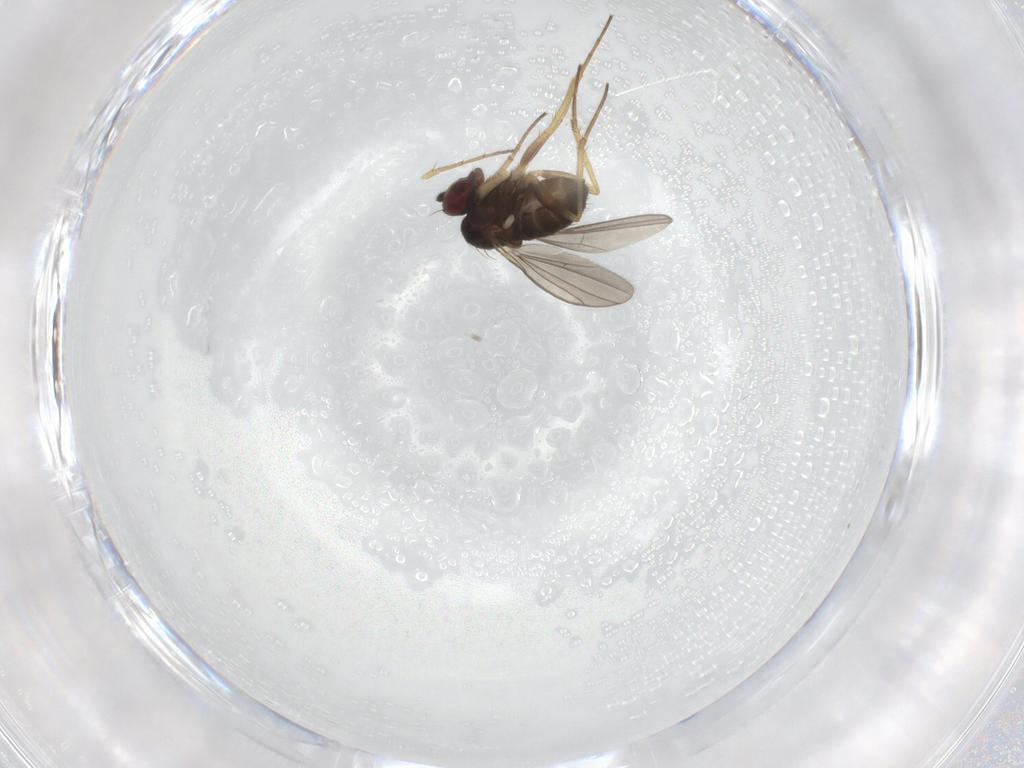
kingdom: Animalia
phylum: Arthropoda
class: Insecta
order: Diptera
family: Dolichopodidae
